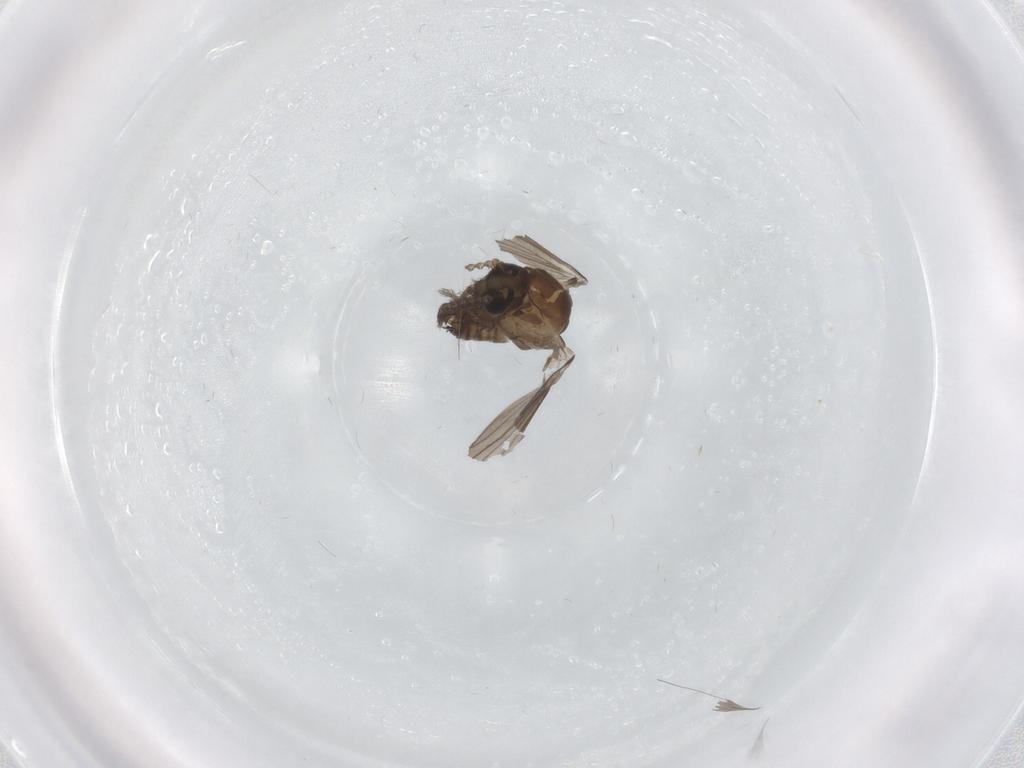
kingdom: Animalia
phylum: Arthropoda
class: Insecta
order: Diptera
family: Psychodidae
